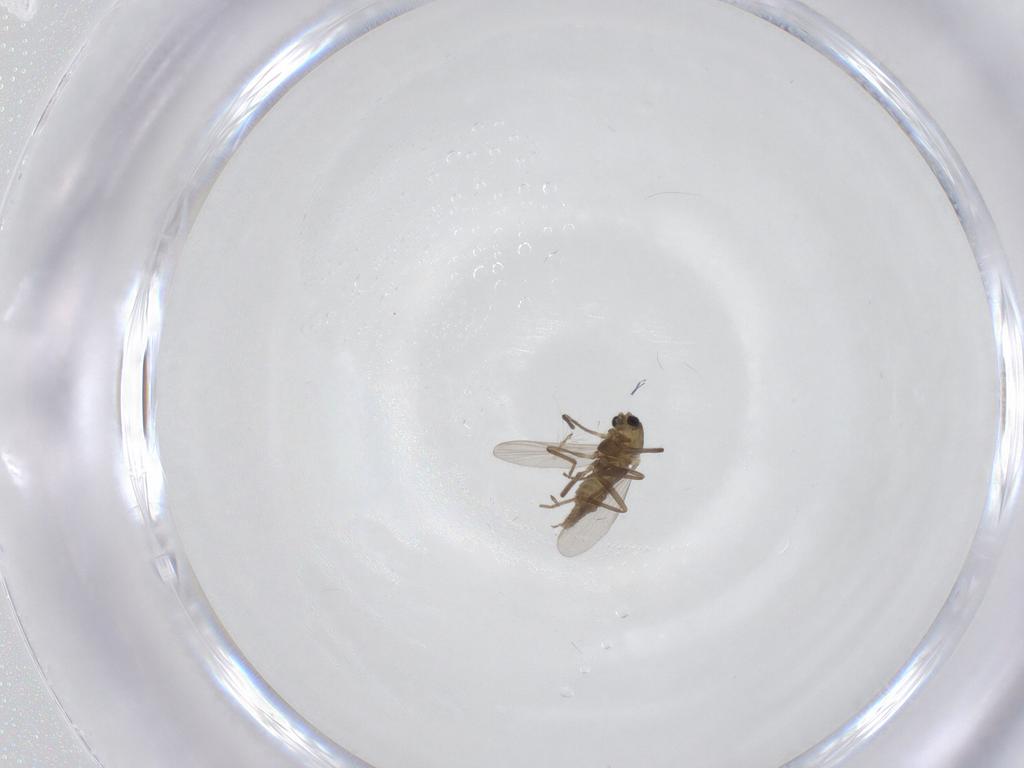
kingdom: Animalia
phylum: Arthropoda
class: Insecta
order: Diptera
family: Chironomidae
